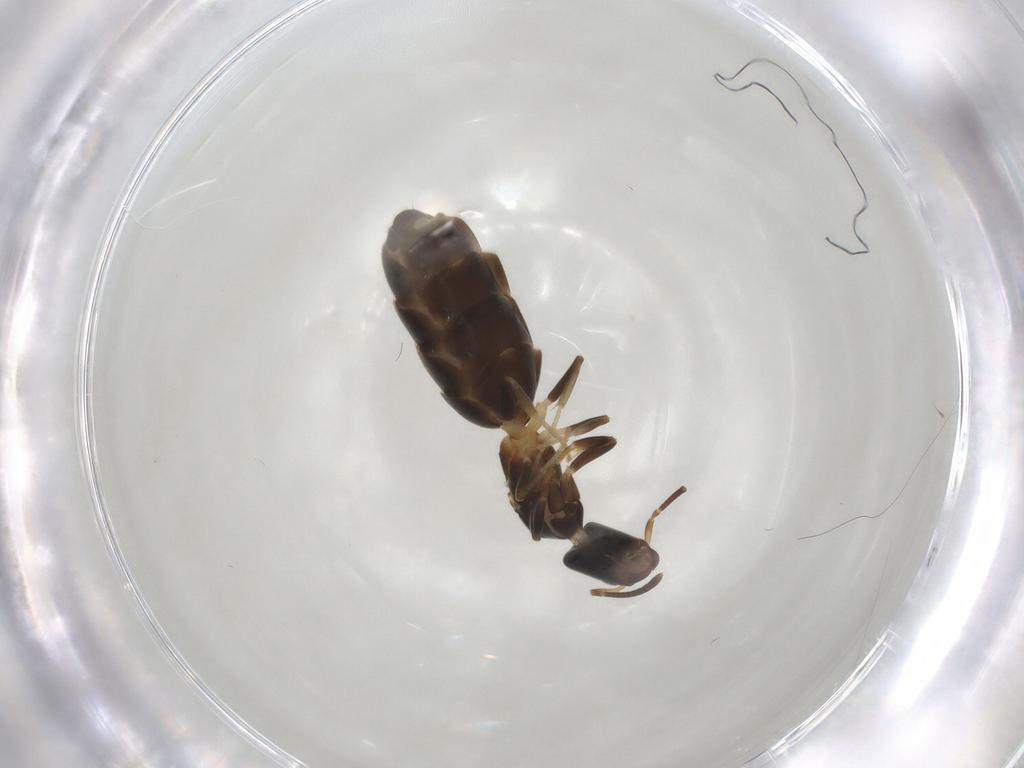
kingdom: Animalia
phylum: Arthropoda
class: Insecta
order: Hymenoptera
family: Formicidae
